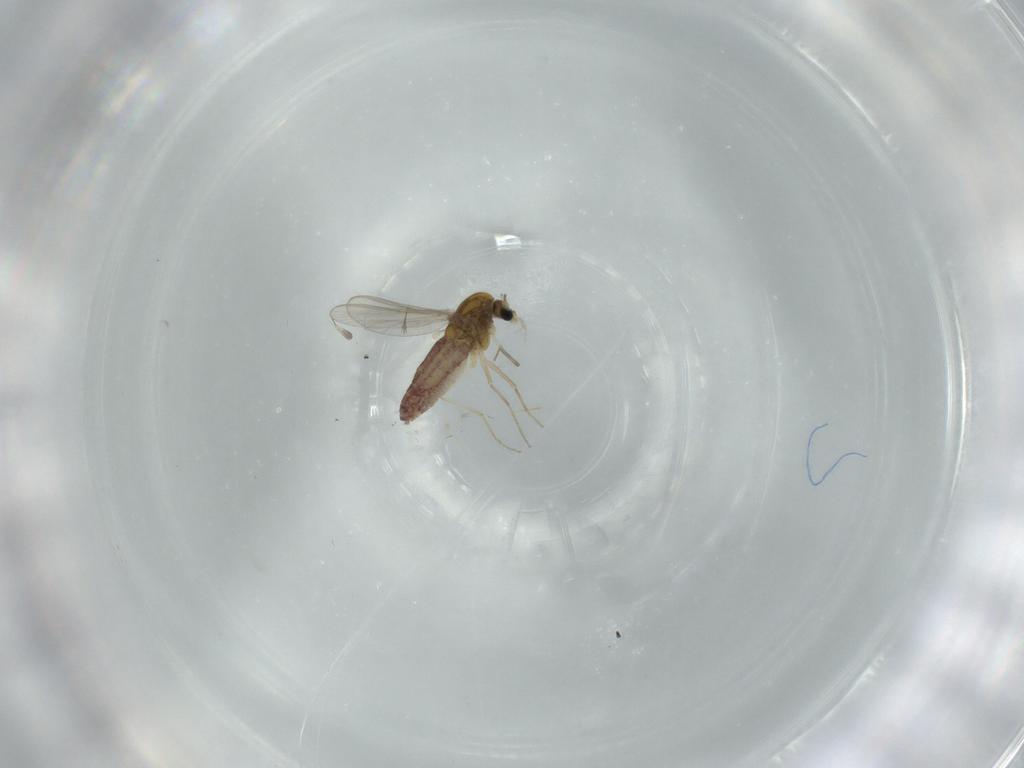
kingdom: Animalia
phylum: Arthropoda
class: Insecta
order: Diptera
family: Chironomidae
